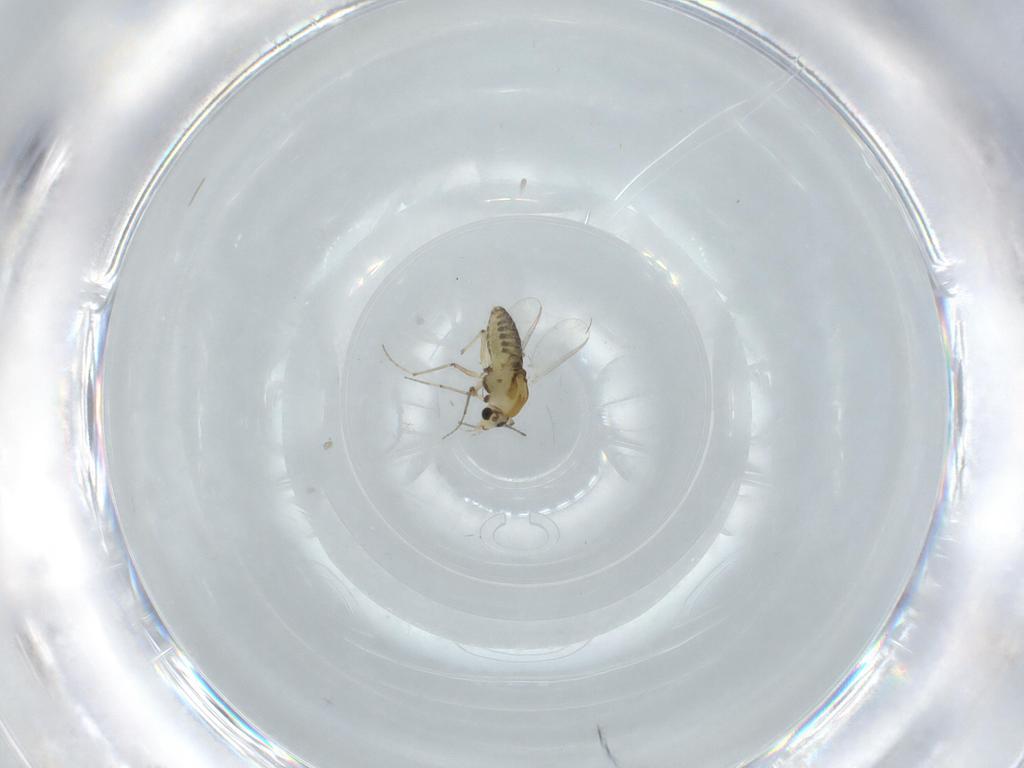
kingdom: Animalia
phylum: Arthropoda
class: Insecta
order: Diptera
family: Chironomidae
